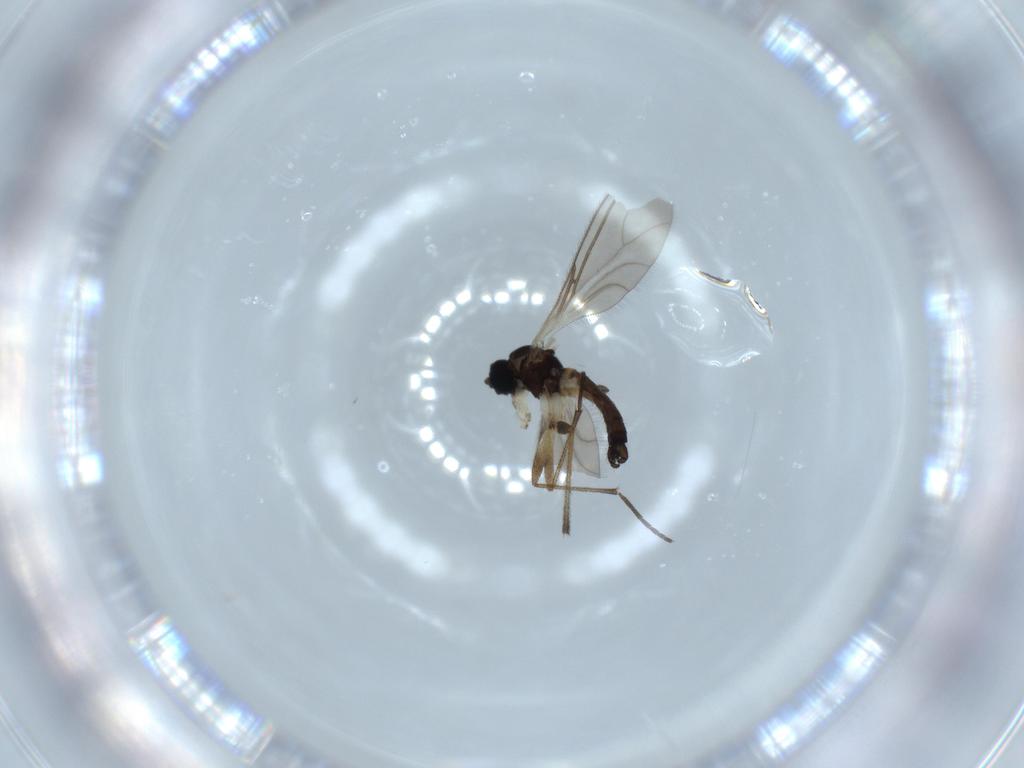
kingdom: Animalia
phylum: Arthropoda
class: Insecta
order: Diptera
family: Sciaridae
